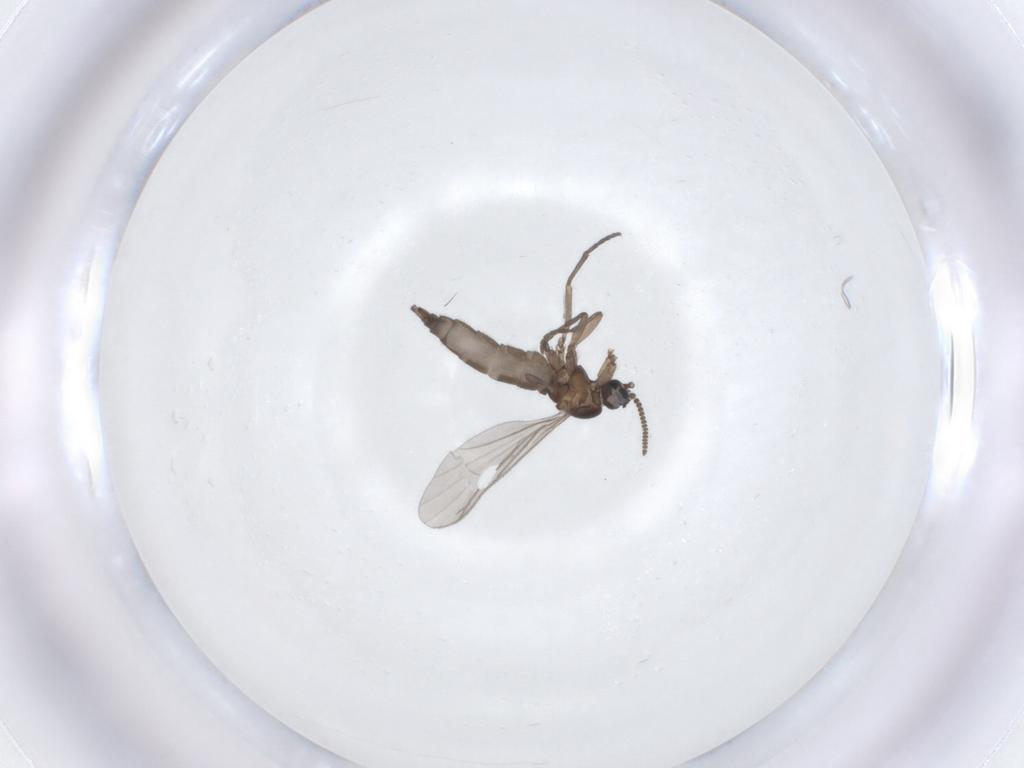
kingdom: Animalia
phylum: Arthropoda
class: Insecta
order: Diptera
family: Sciaridae
